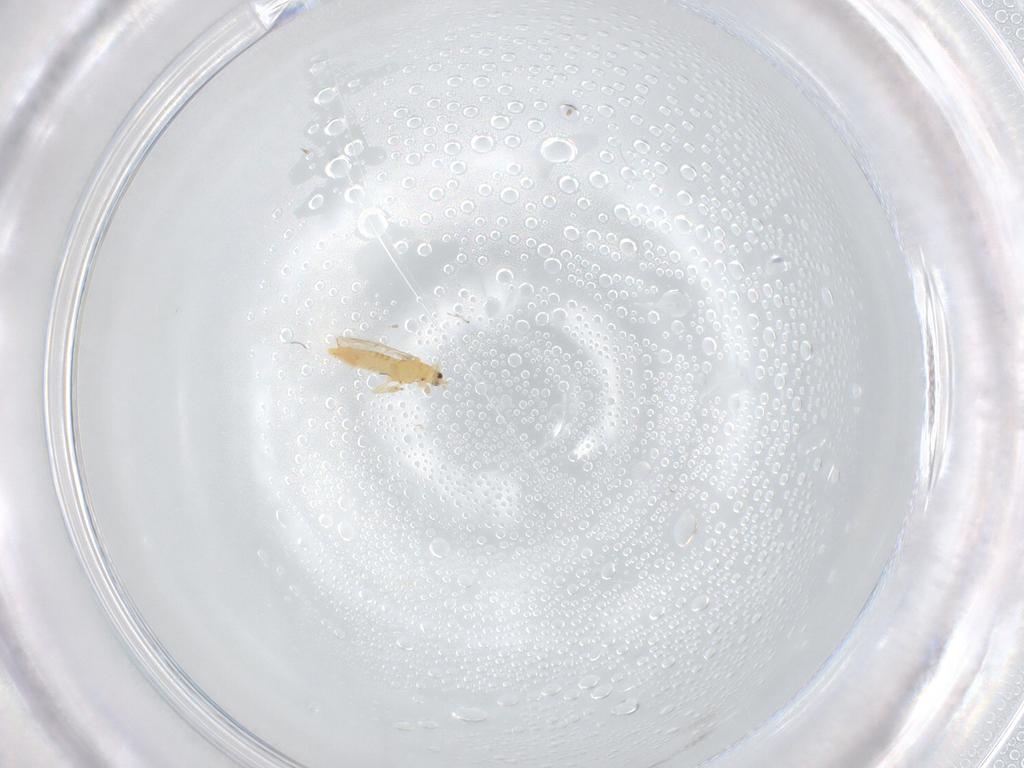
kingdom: Animalia
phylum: Arthropoda
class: Insecta
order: Thysanoptera
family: Thripidae
